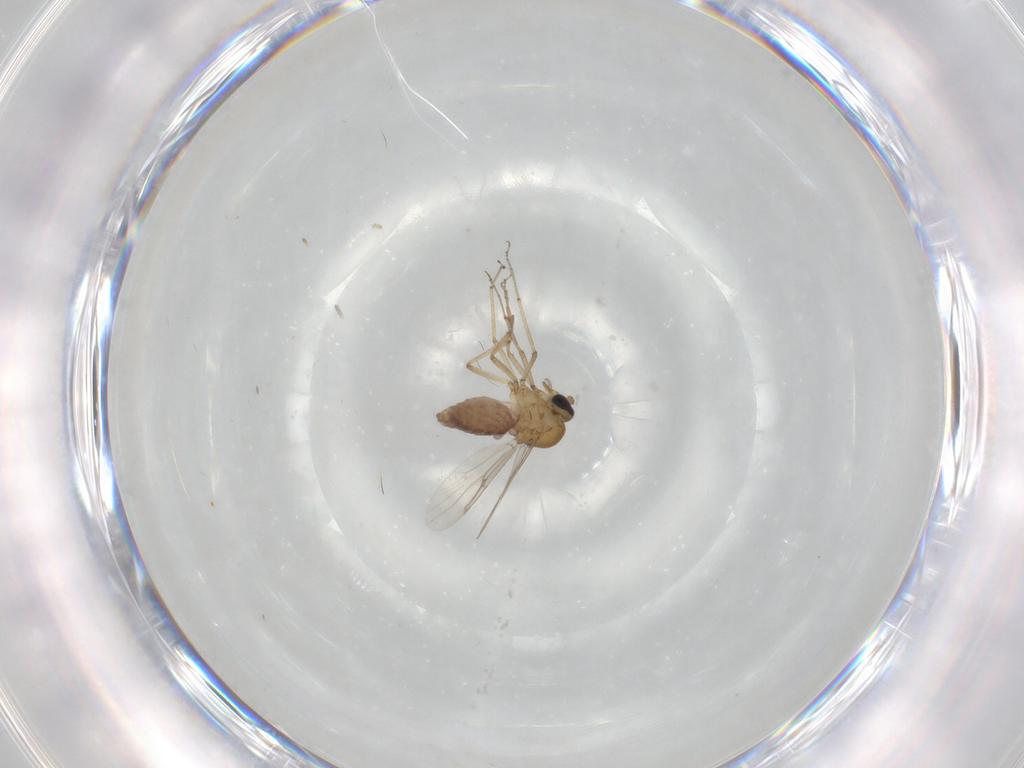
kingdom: Animalia
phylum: Arthropoda
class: Insecta
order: Diptera
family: Ceratopogonidae
